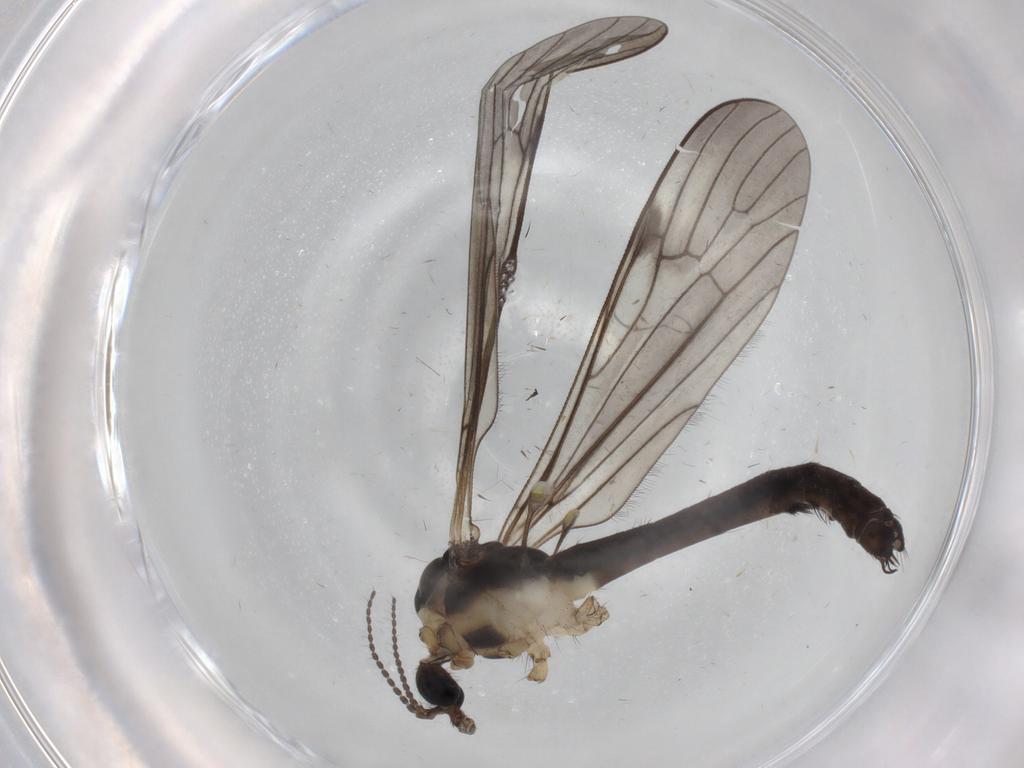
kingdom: Animalia
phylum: Arthropoda
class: Insecta
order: Diptera
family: Limoniidae
